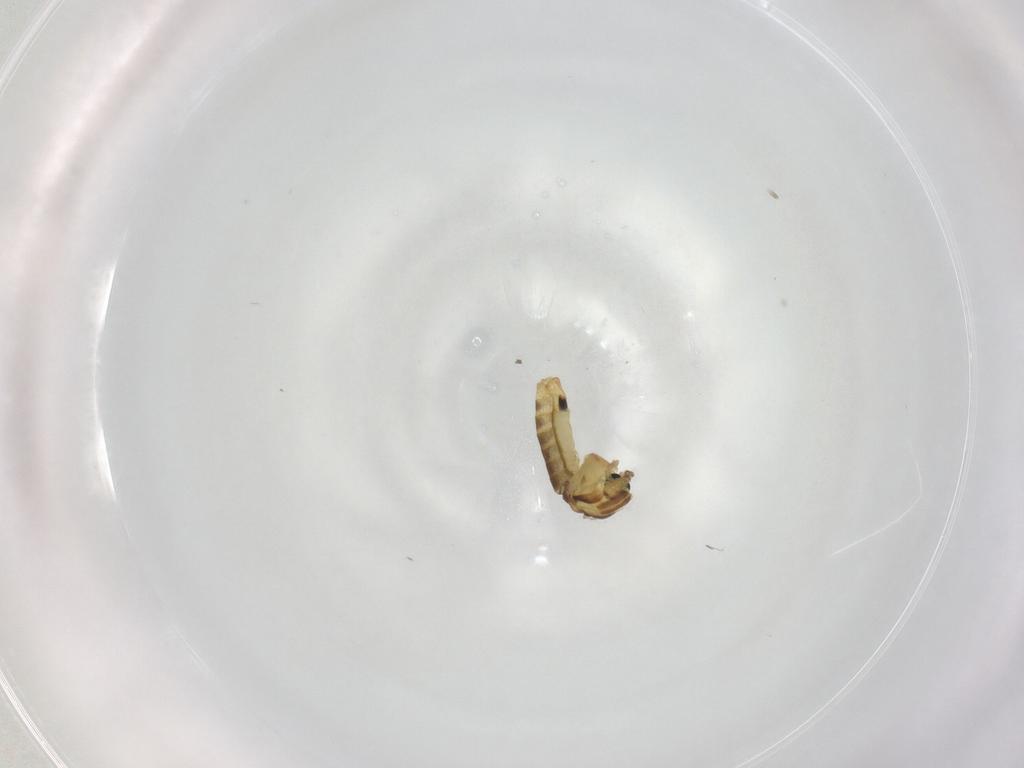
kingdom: Animalia
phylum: Arthropoda
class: Insecta
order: Diptera
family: Chironomidae
